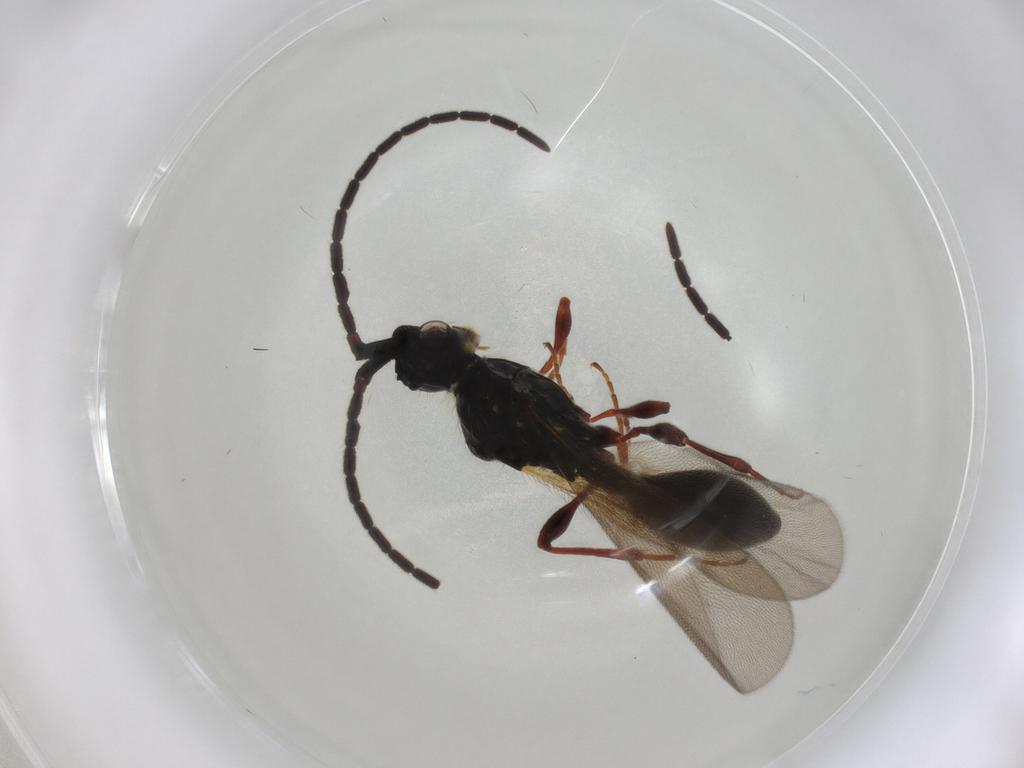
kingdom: Animalia
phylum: Arthropoda
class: Insecta
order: Hymenoptera
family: Diapriidae
